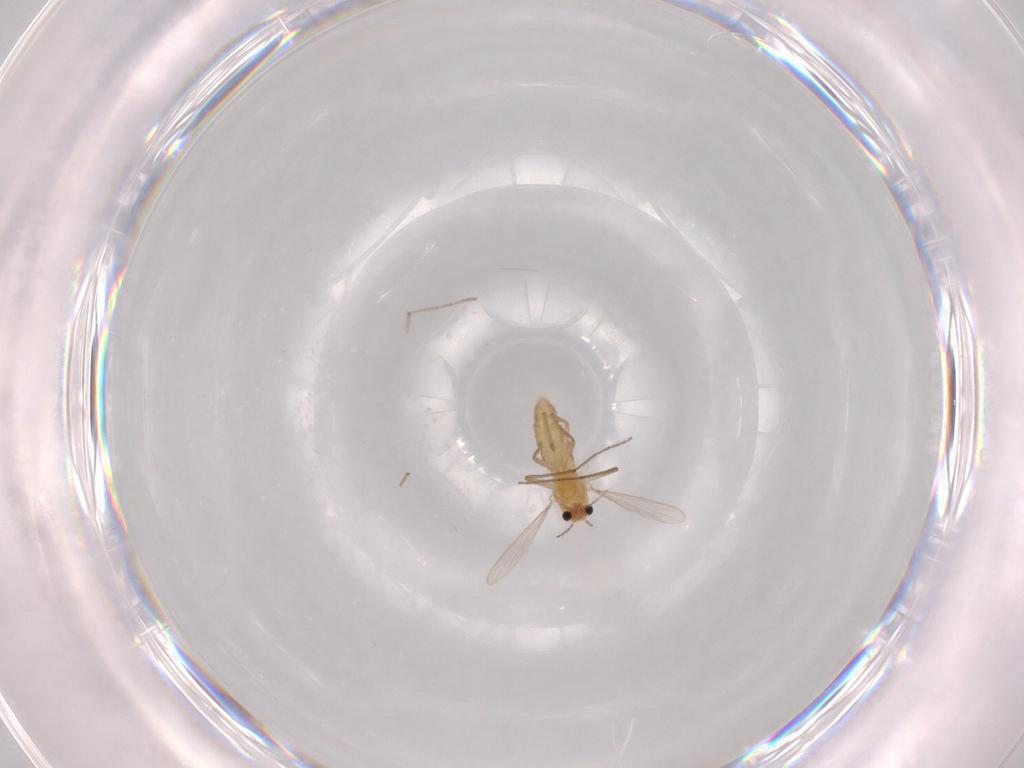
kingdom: Animalia
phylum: Arthropoda
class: Insecta
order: Diptera
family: Chironomidae
